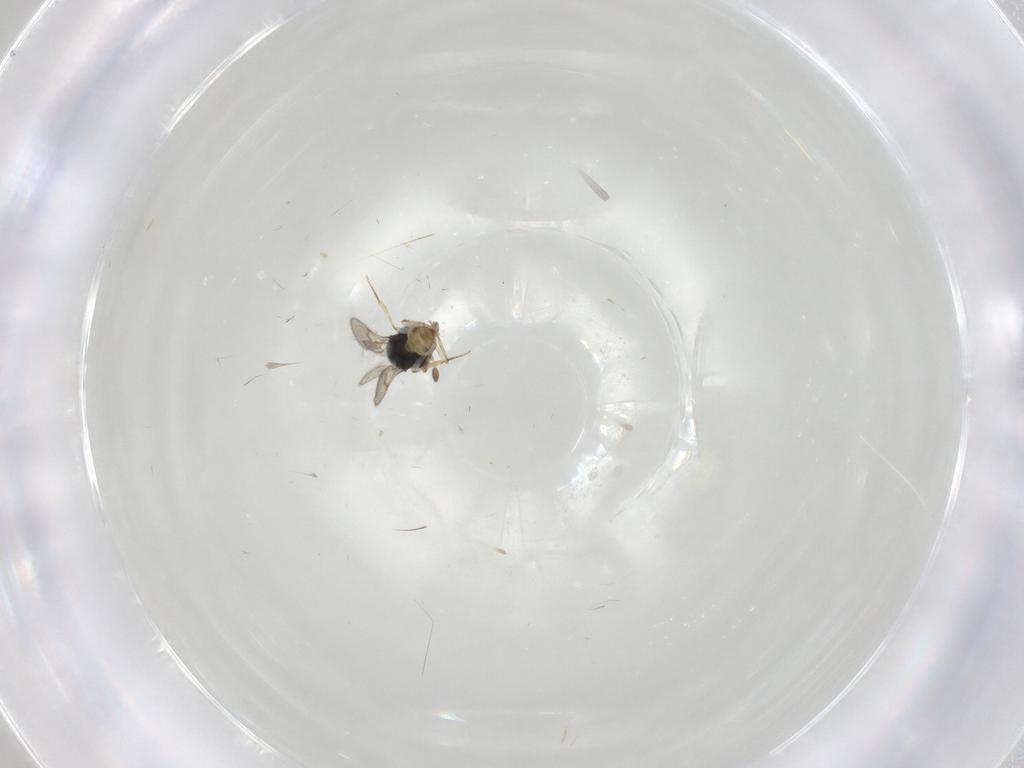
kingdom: Animalia
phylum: Arthropoda
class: Insecta
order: Hymenoptera
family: Scelionidae
